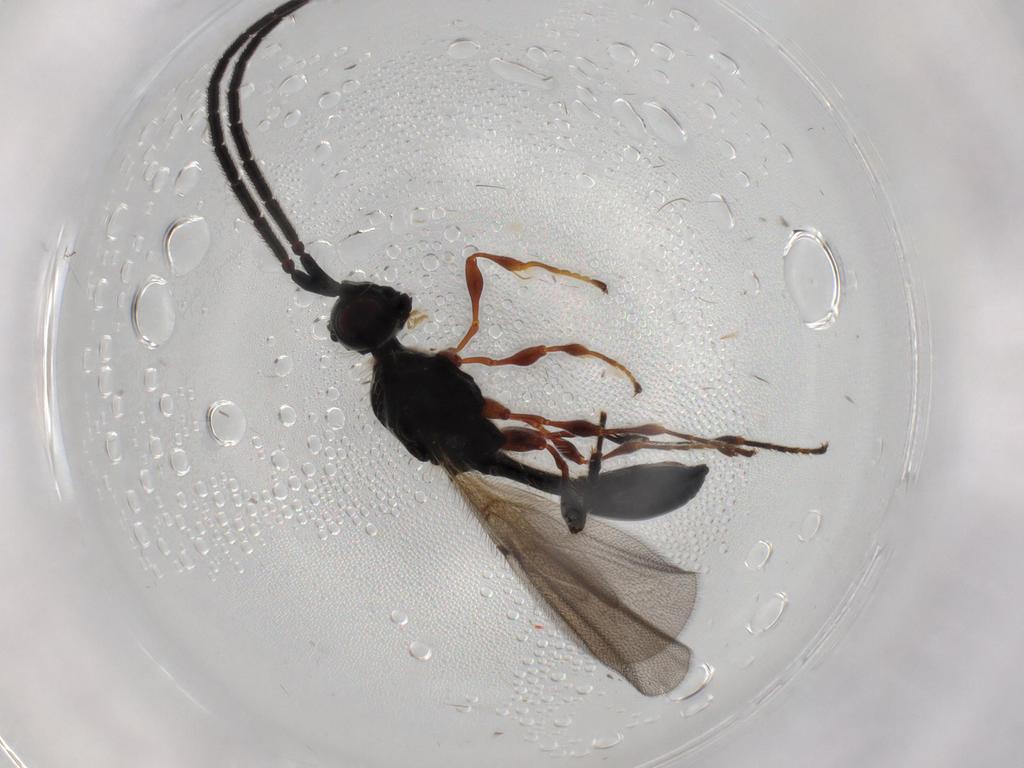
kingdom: Animalia
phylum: Arthropoda
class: Insecta
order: Hymenoptera
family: Diapriidae
